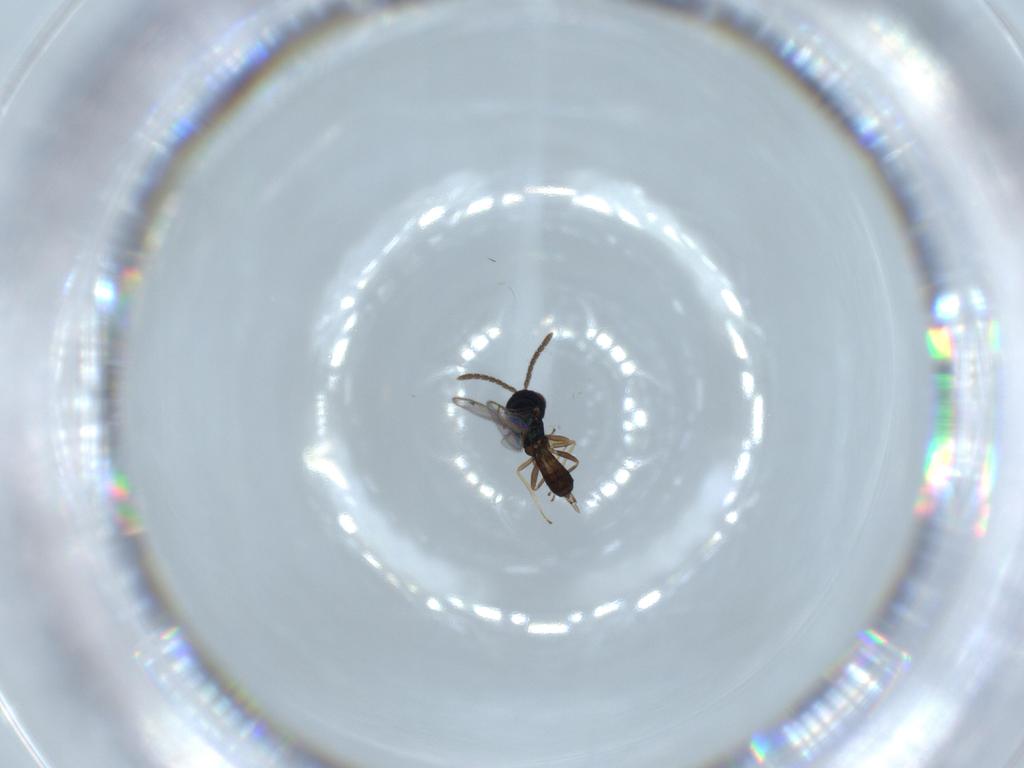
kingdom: Animalia
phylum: Arthropoda
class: Insecta
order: Hymenoptera
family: Pteromalidae
